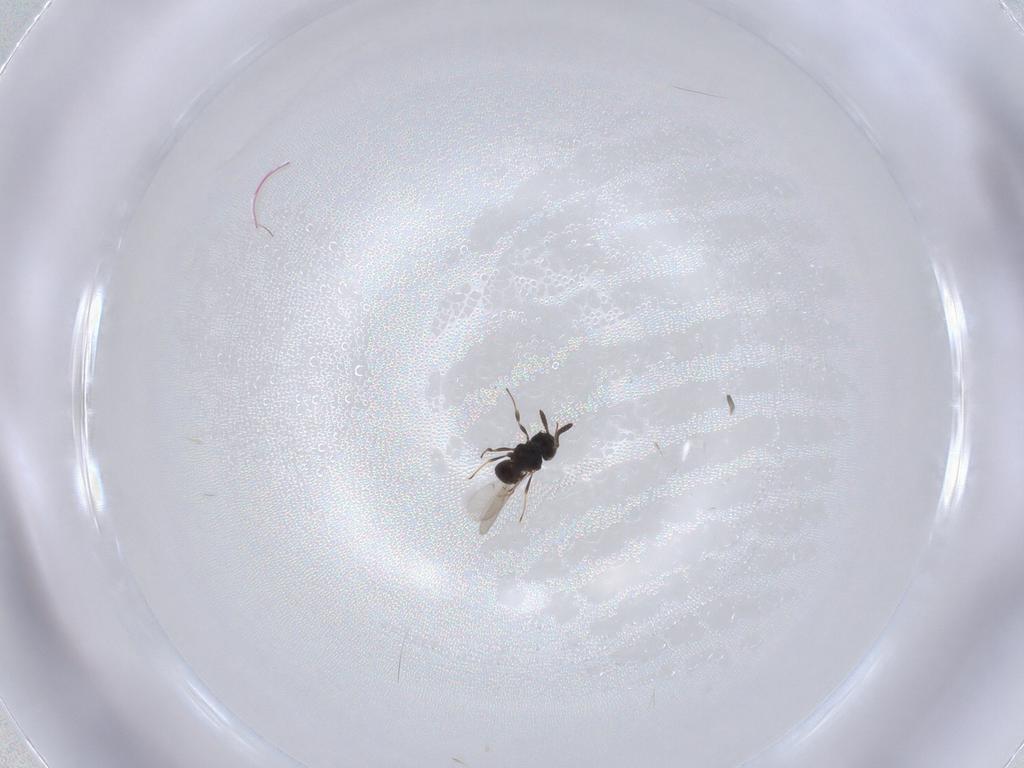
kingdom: Animalia
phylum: Arthropoda
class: Insecta
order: Hymenoptera
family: Scelionidae
